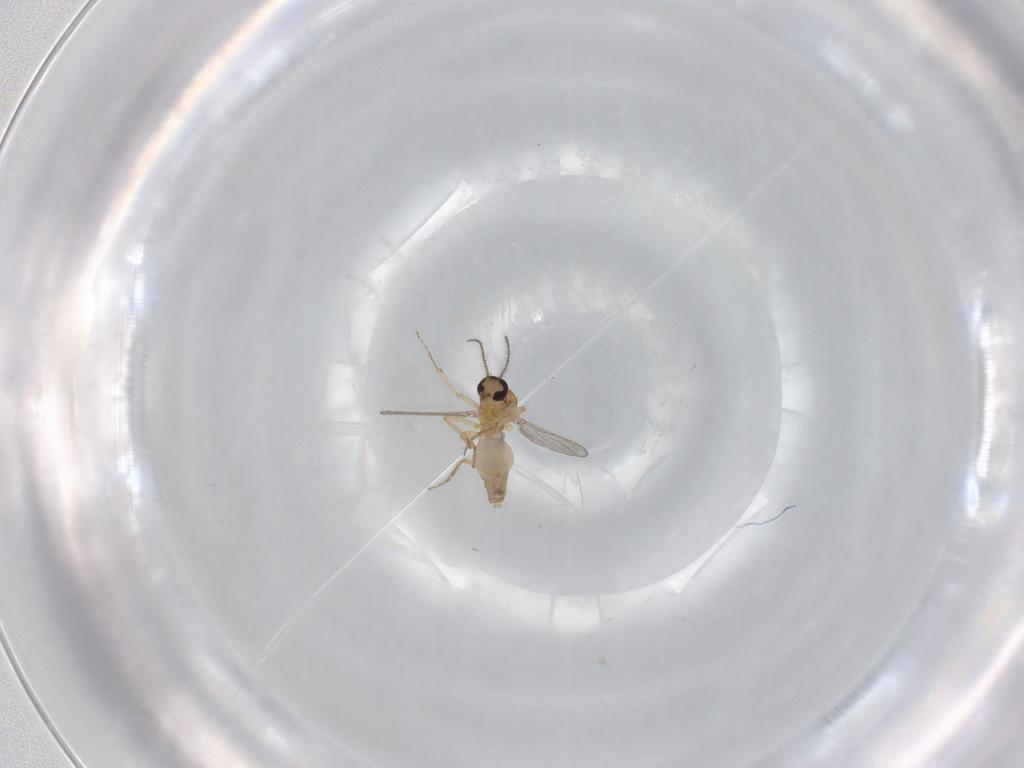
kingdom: Animalia
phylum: Arthropoda
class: Insecta
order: Diptera
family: Ceratopogonidae
